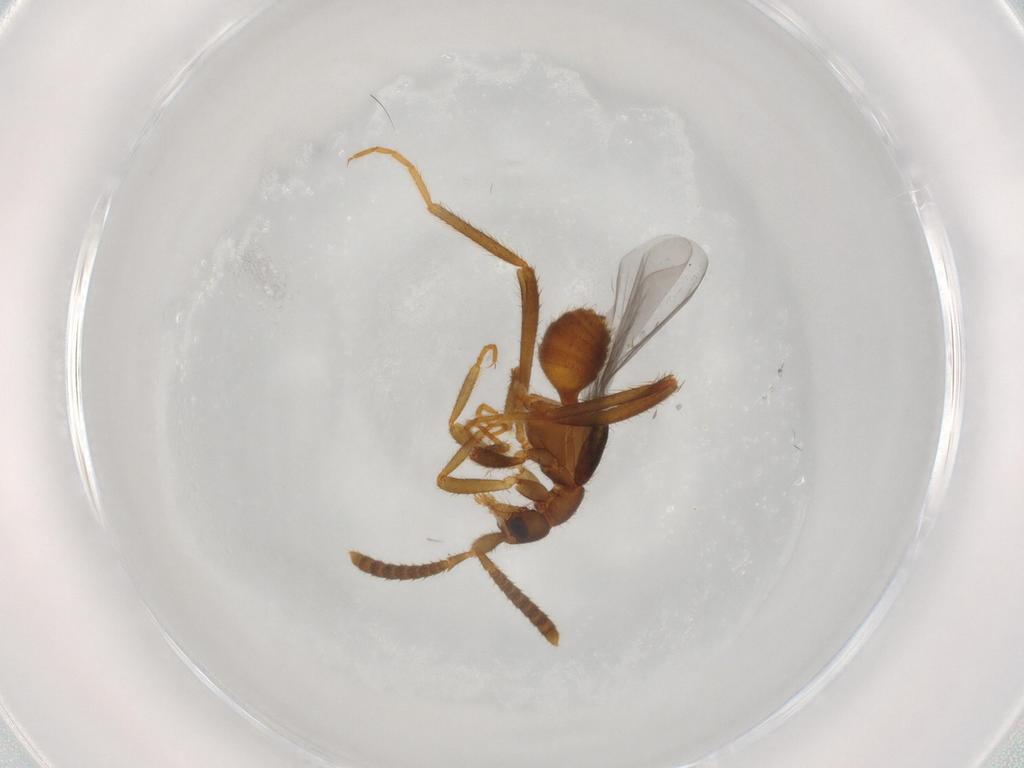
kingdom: Animalia
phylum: Arthropoda
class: Insecta
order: Coleoptera
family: Staphylinidae
